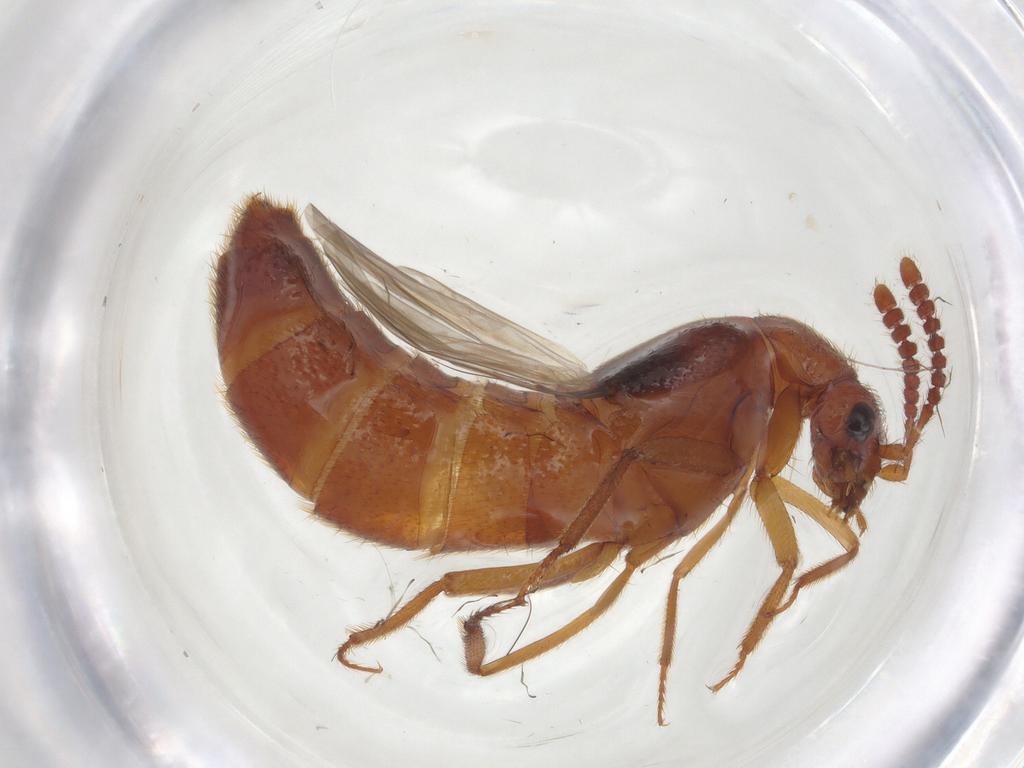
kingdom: Animalia
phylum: Arthropoda
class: Insecta
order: Coleoptera
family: Staphylinidae
